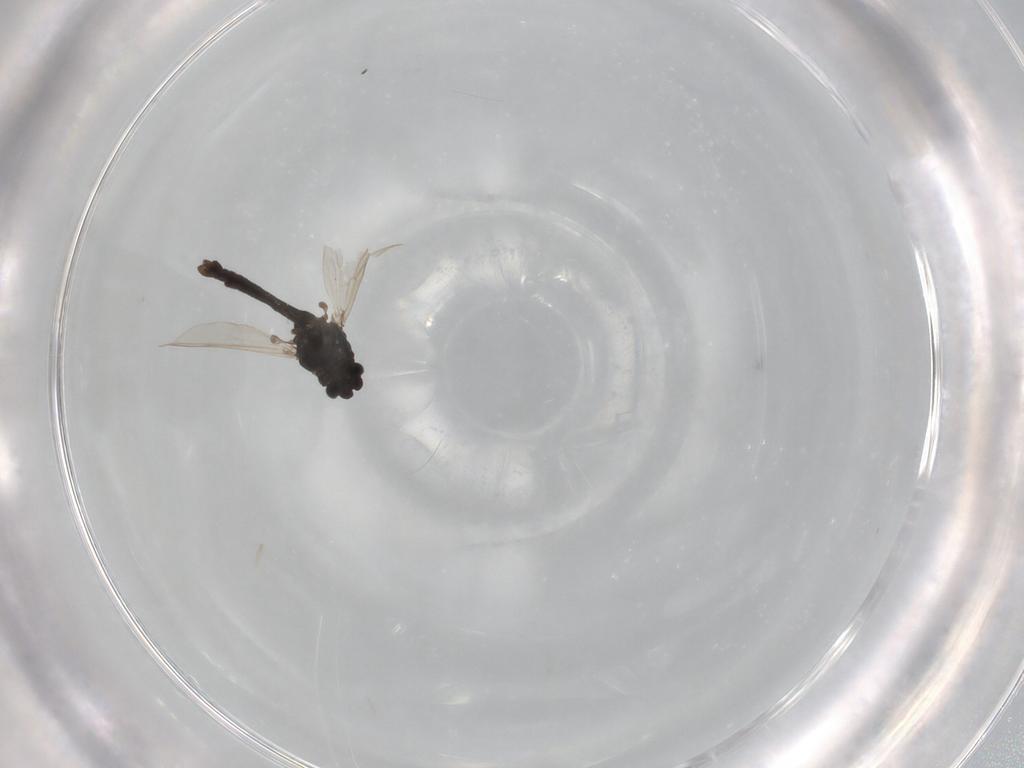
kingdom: Animalia
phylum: Arthropoda
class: Insecta
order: Diptera
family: Chironomidae
